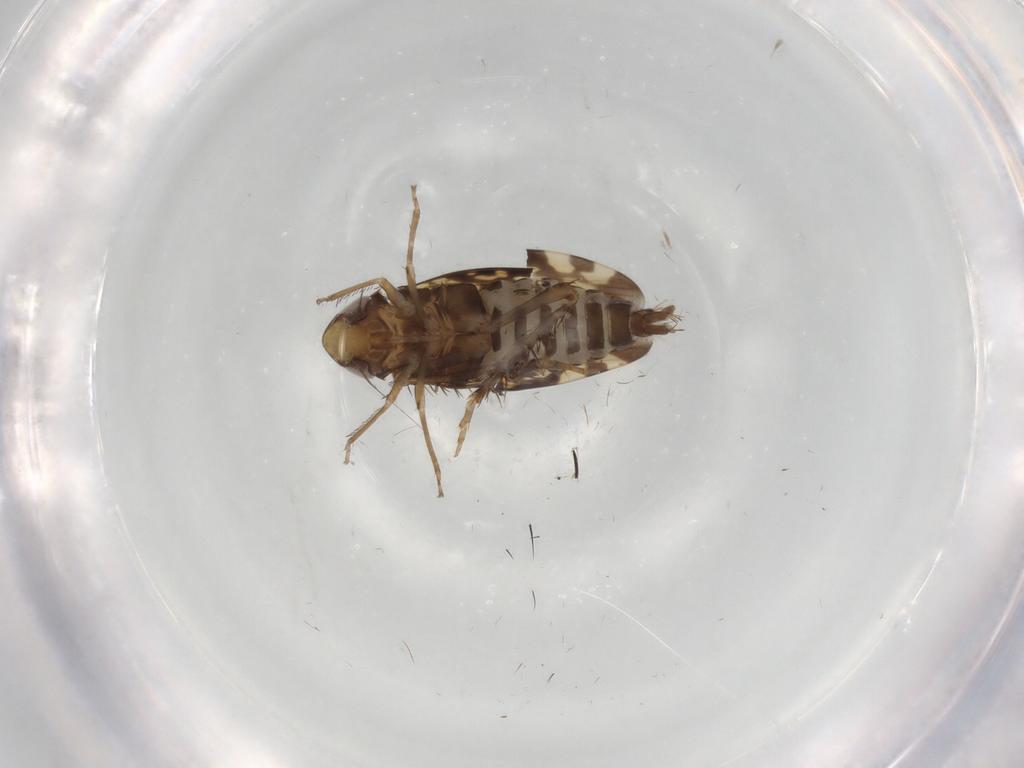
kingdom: Animalia
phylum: Arthropoda
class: Insecta
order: Hemiptera
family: Cicadellidae
